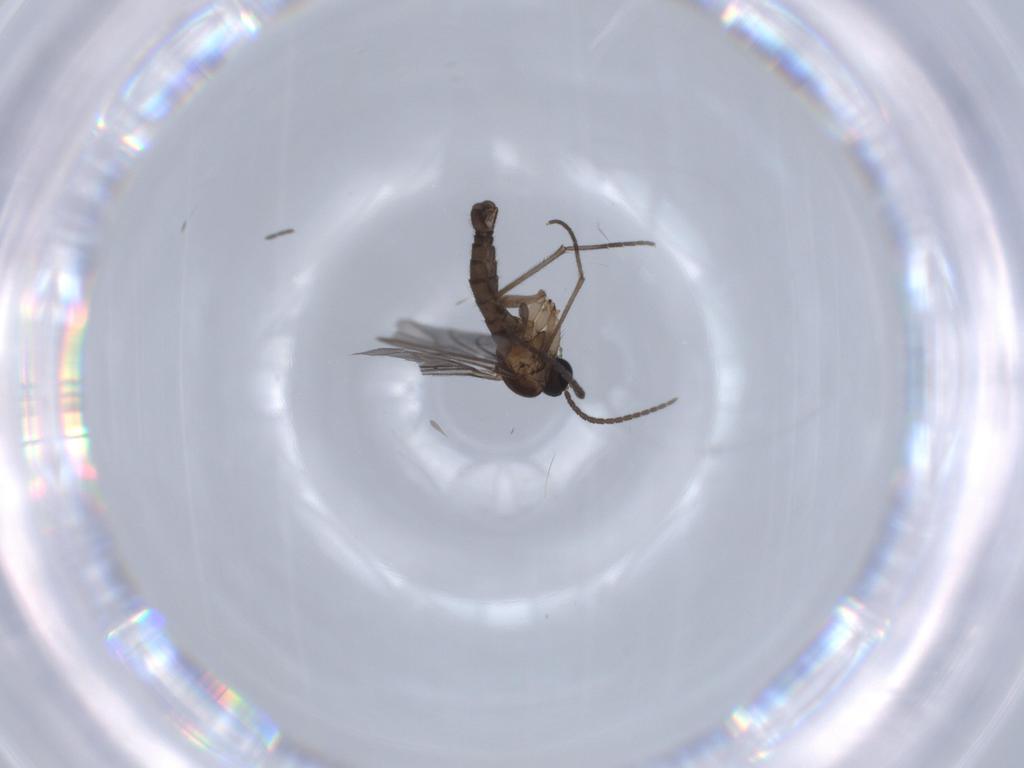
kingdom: Animalia
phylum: Arthropoda
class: Insecta
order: Diptera
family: Sciaridae
